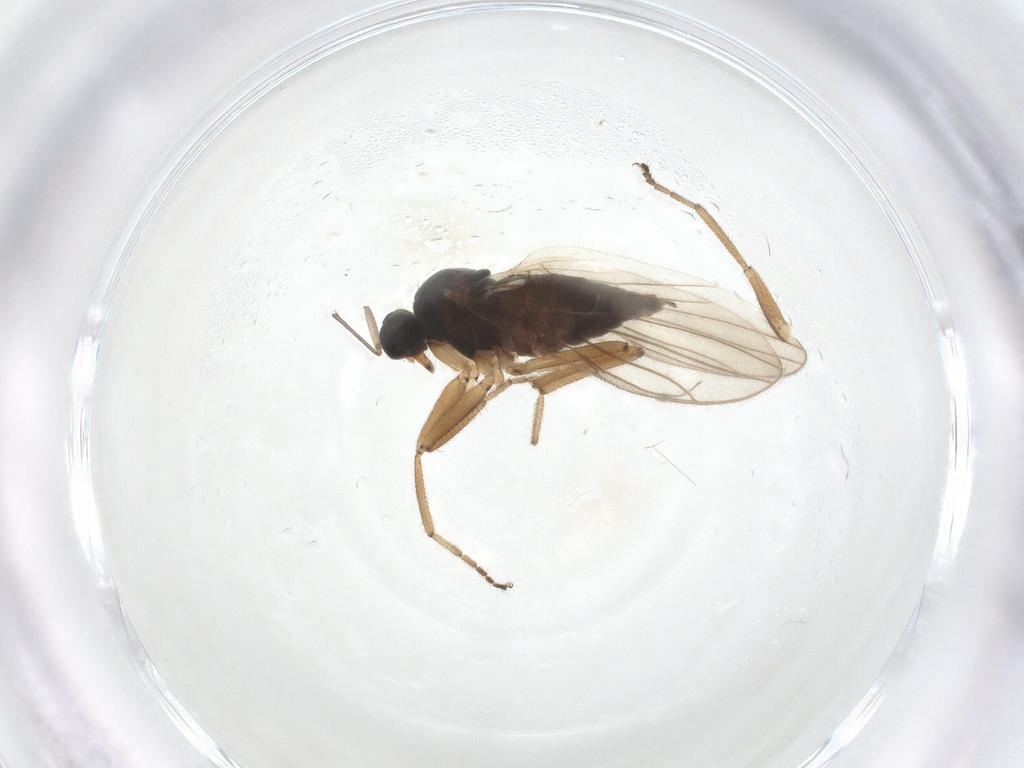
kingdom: Animalia
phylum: Arthropoda
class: Insecta
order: Diptera
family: Hybotidae
